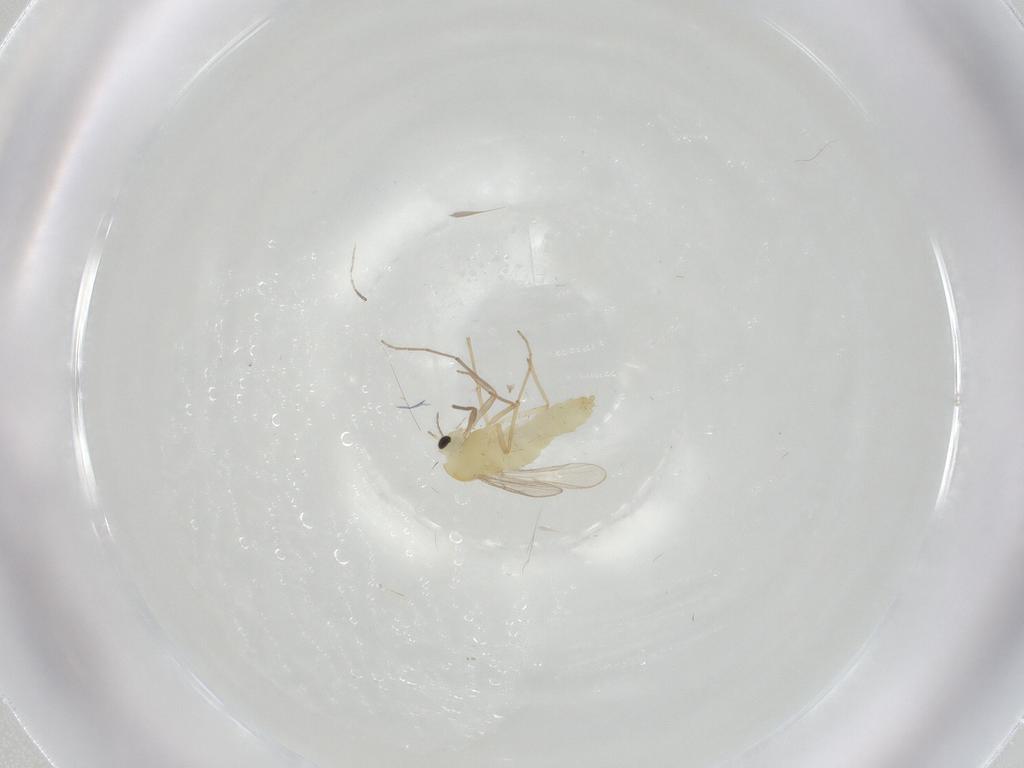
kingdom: Animalia
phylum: Arthropoda
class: Insecta
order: Diptera
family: Chironomidae
